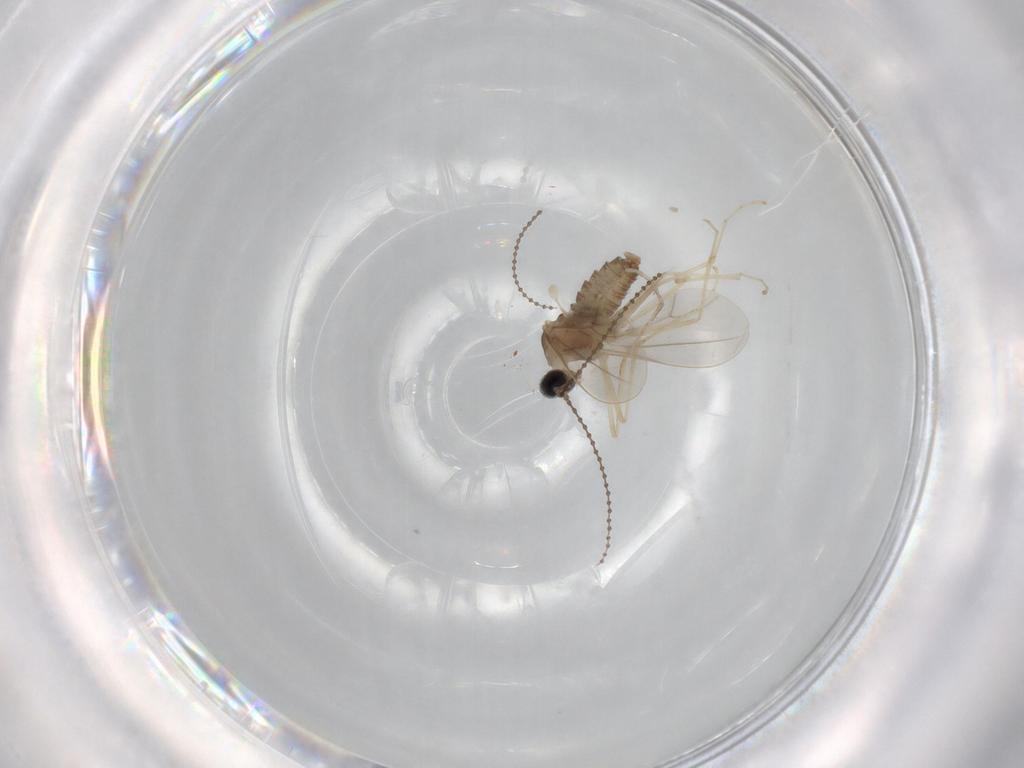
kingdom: Animalia
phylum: Arthropoda
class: Insecta
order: Diptera
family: Cecidomyiidae
